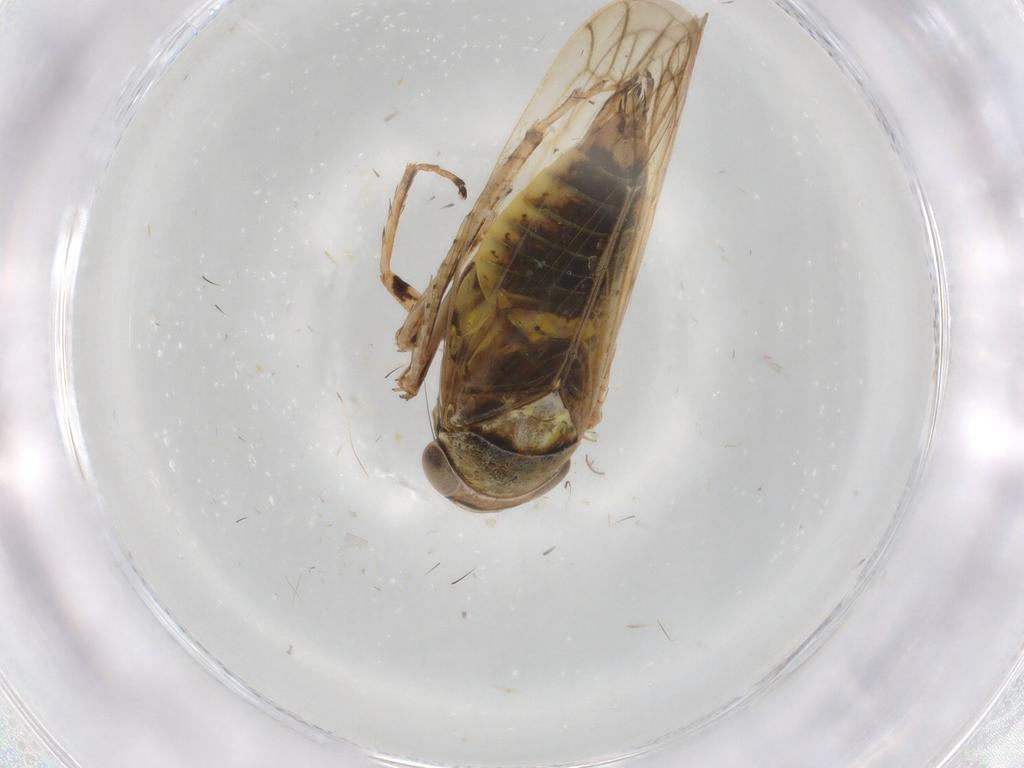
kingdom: Animalia
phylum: Arthropoda
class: Insecta
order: Hemiptera
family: Cicadellidae
